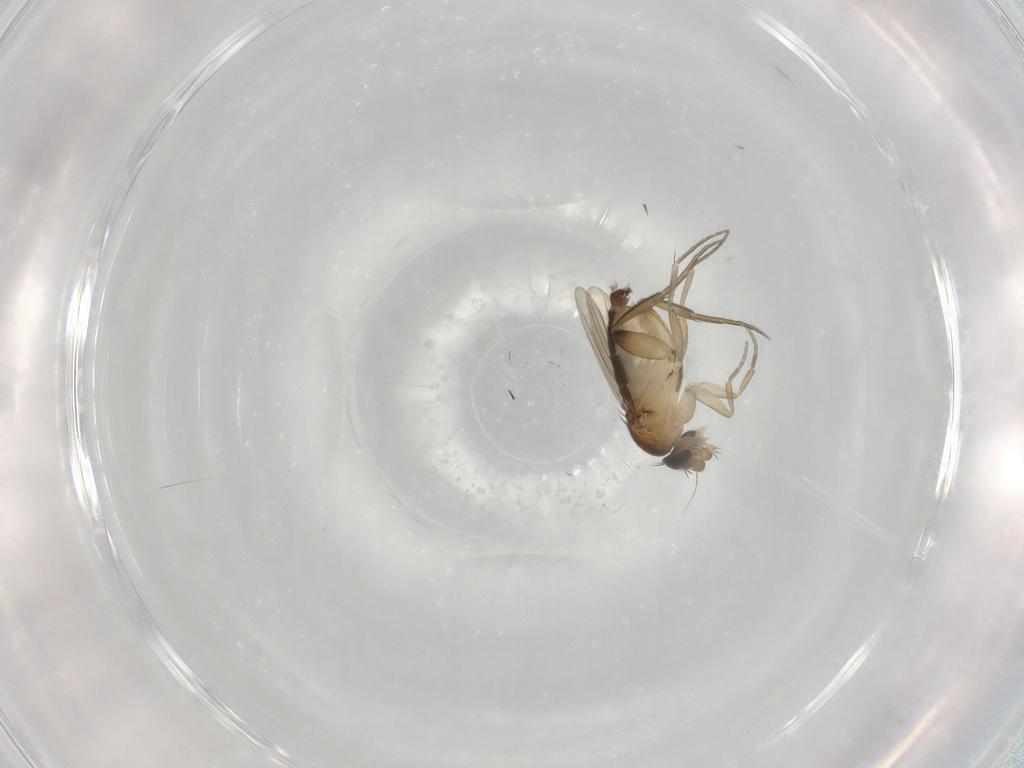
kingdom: Animalia
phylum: Arthropoda
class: Insecta
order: Diptera
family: Phoridae
